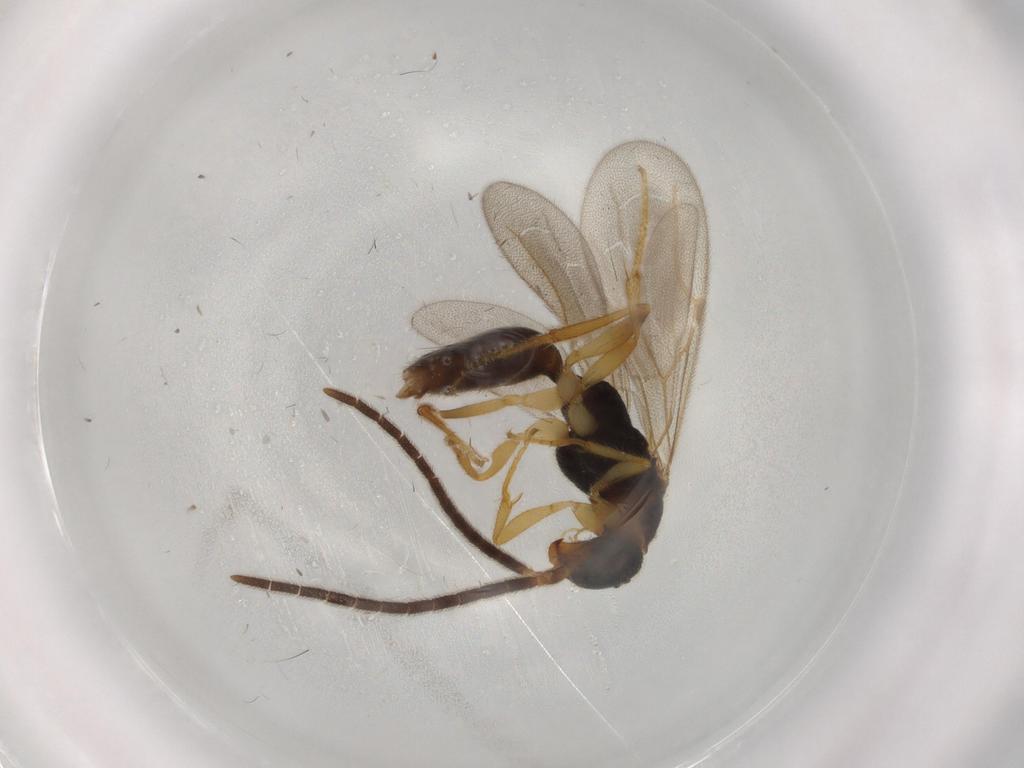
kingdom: Animalia
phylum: Arthropoda
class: Insecta
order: Hymenoptera
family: Bethylidae
